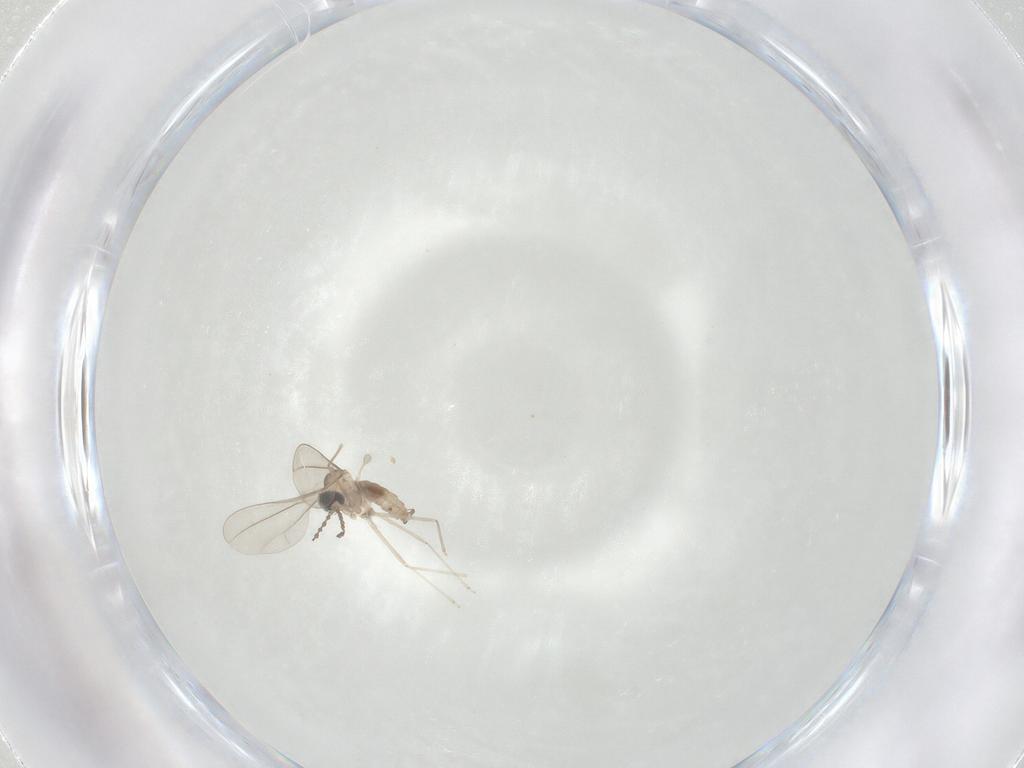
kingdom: Animalia
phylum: Arthropoda
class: Insecta
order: Diptera
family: Cecidomyiidae
